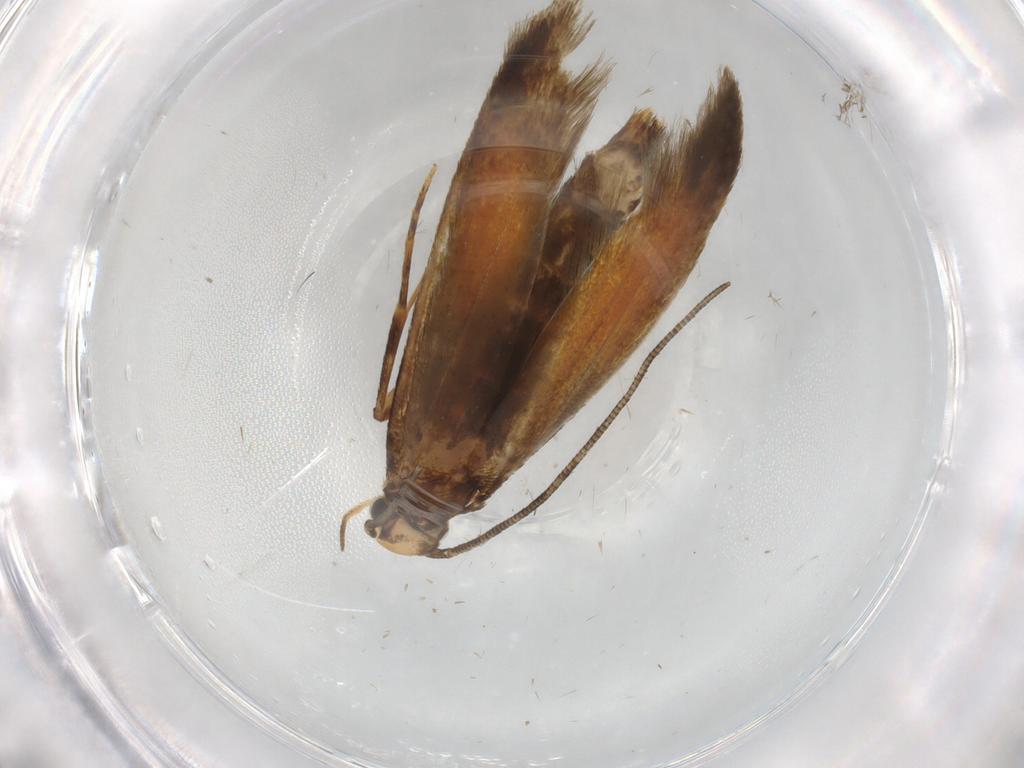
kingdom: Animalia
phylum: Arthropoda
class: Insecta
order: Lepidoptera
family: Tineidae
